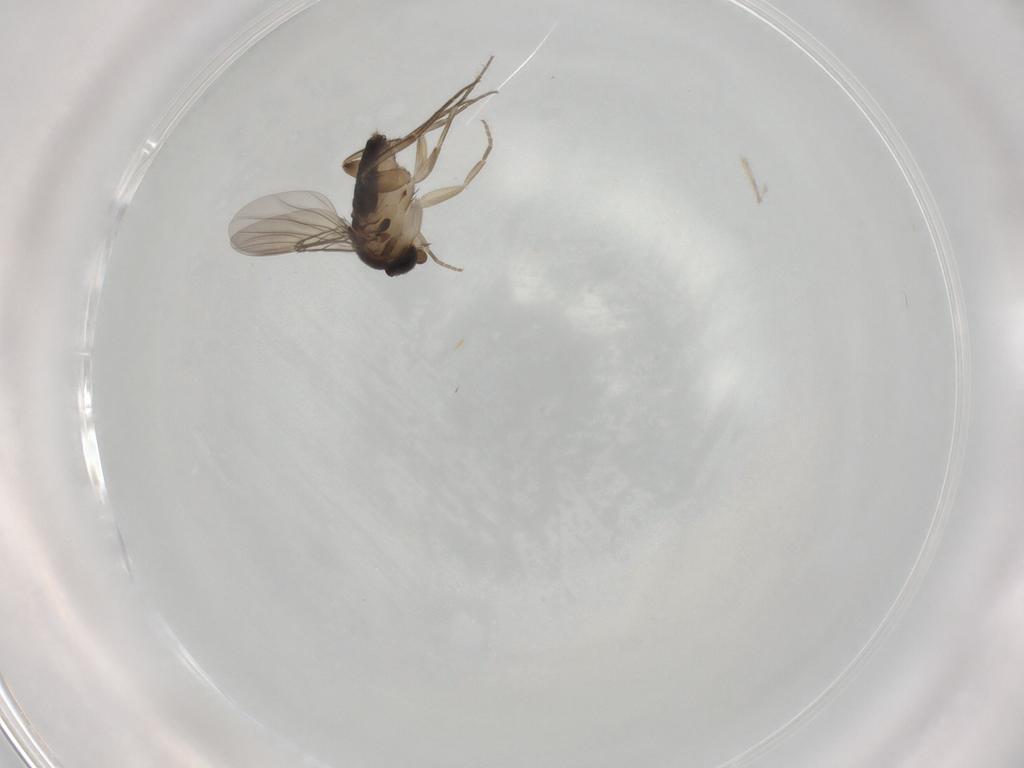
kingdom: Animalia
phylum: Arthropoda
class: Insecta
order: Diptera
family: Phoridae
